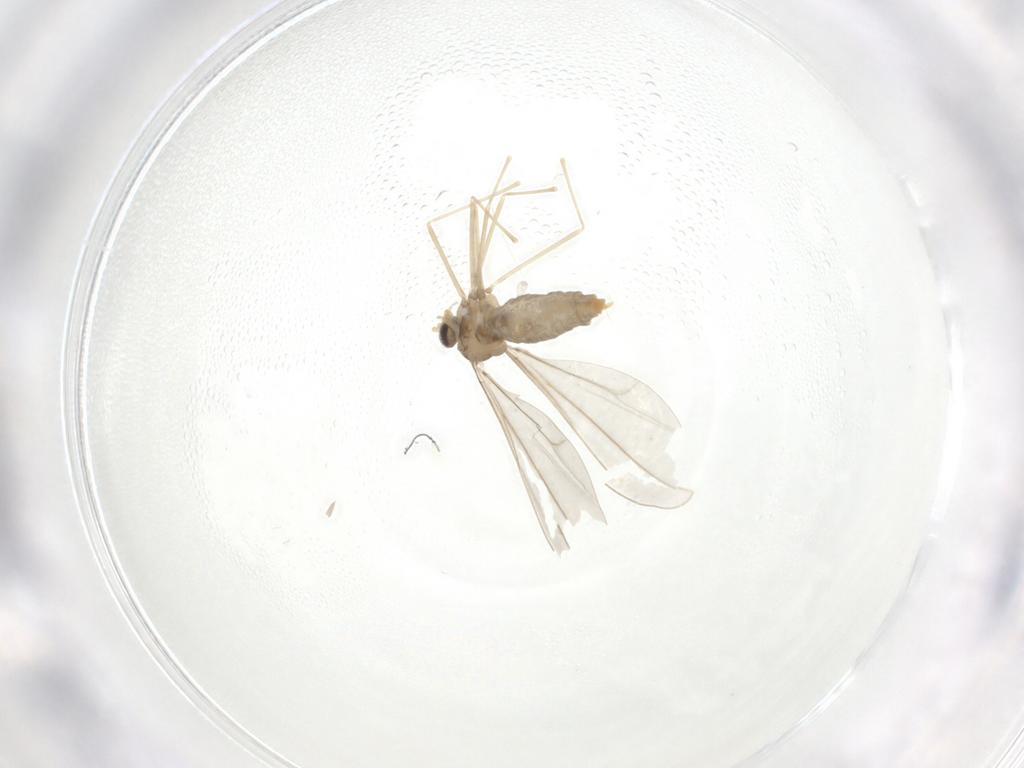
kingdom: Animalia
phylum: Arthropoda
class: Insecta
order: Diptera
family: Cecidomyiidae
